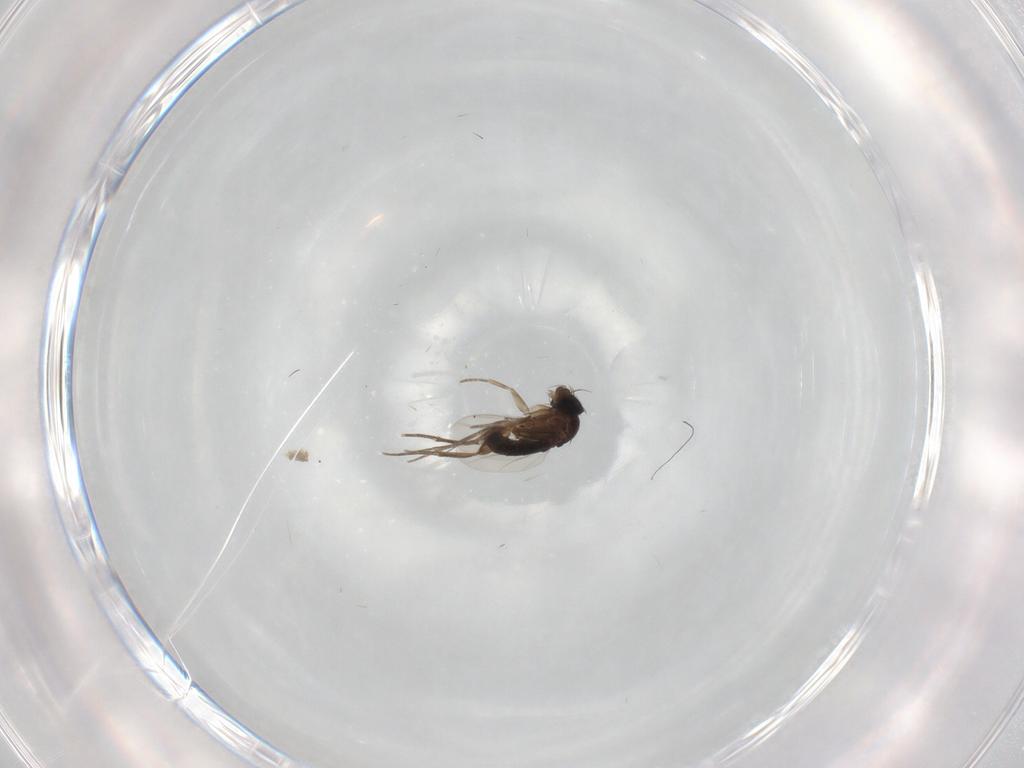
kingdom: Animalia
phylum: Arthropoda
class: Insecta
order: Diptera
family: Phoridae
